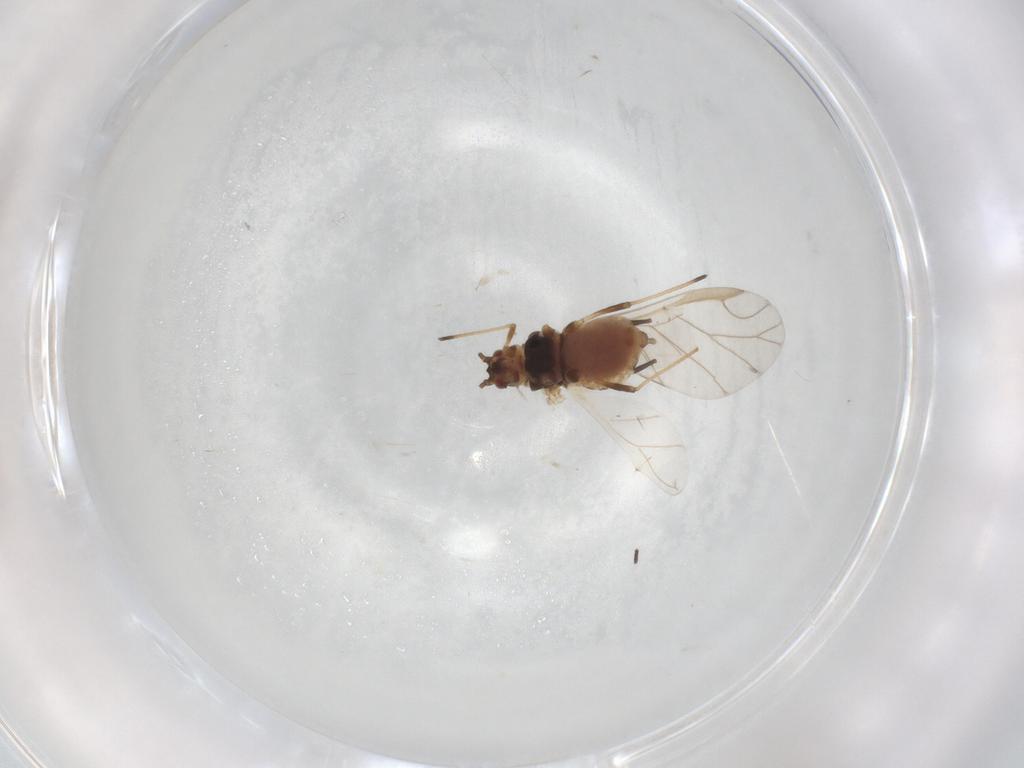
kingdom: Animalia
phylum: Arthropoda
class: Insecta
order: Hemiptera
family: Aphididae
